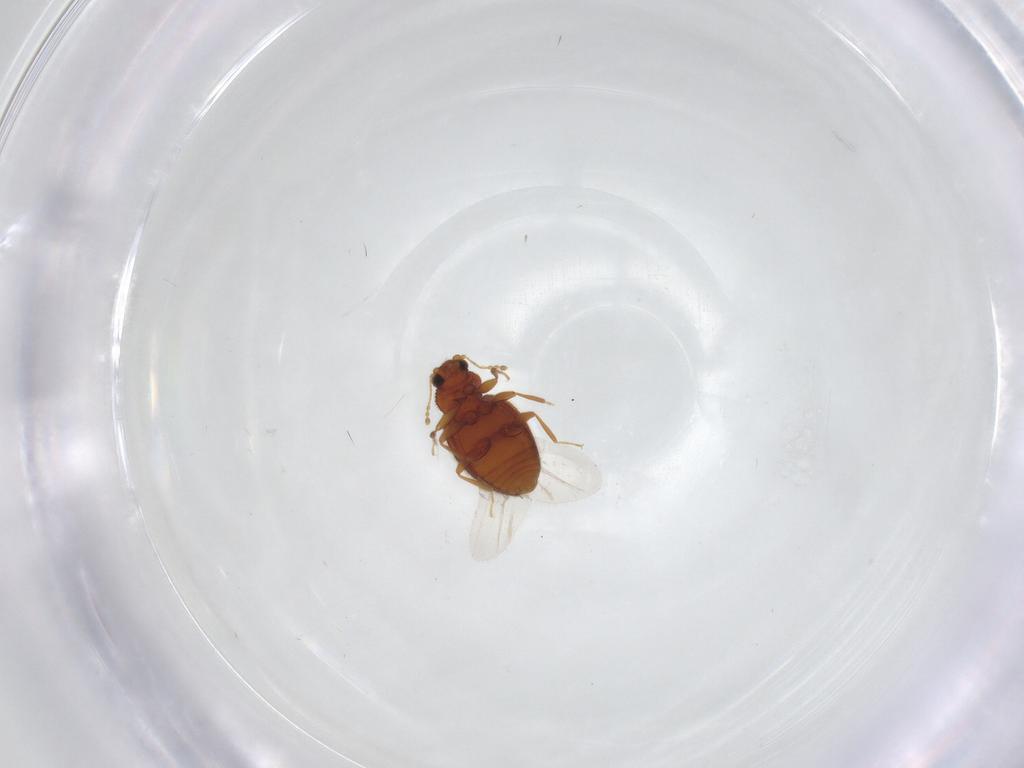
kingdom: Animalia
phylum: Arthropoda
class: Insecta
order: Coleoptera
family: Latridiidae
